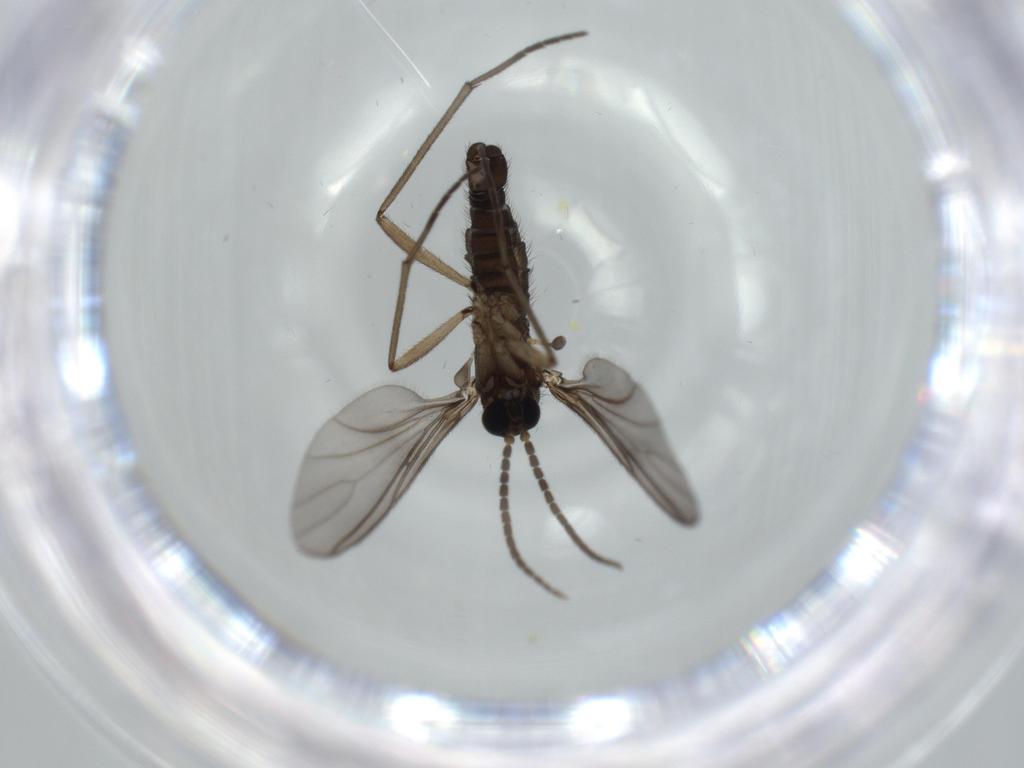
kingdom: Animalia
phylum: Arthropoda
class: Insecta
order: Diptera
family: Sciaridae
